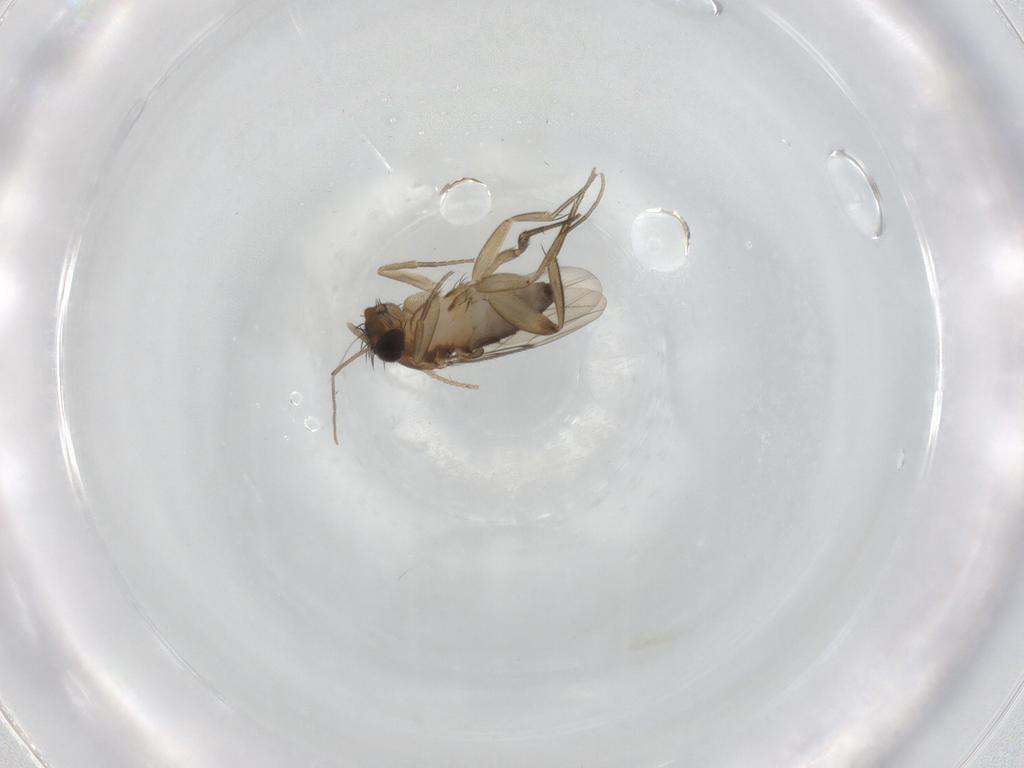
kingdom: Animalia
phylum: Arthropoda
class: Insecta
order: Diptera
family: Phoridae
